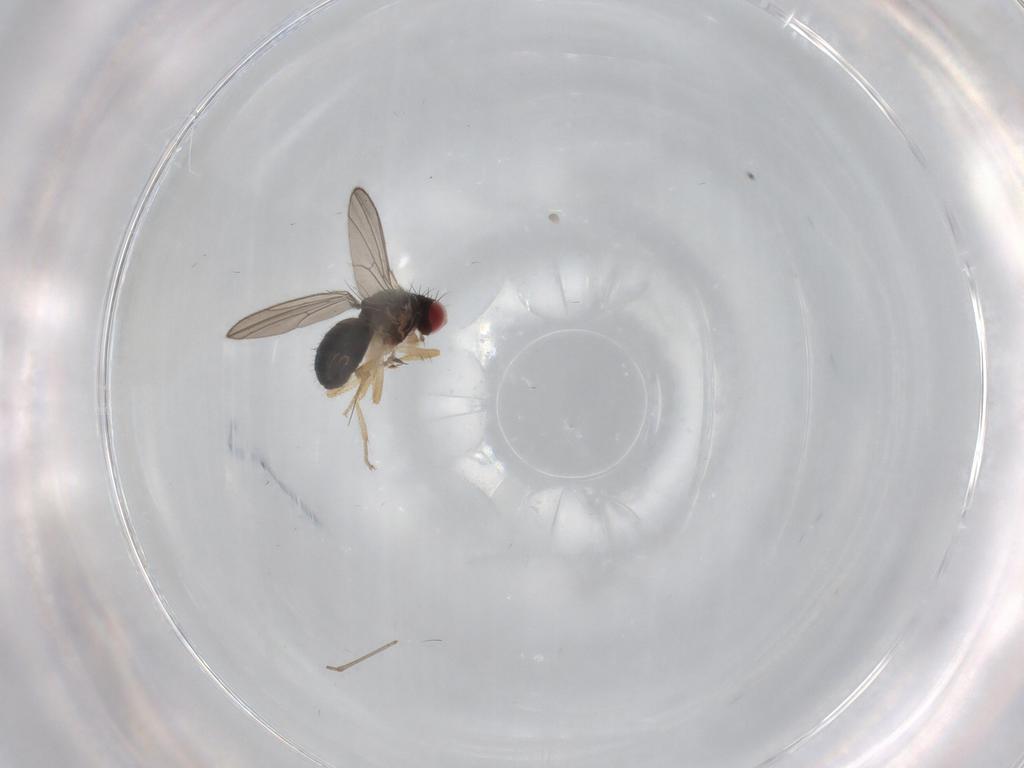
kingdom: Animalia
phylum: Arthropoda
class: Insecta
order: Diptera
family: Drosophilidae
